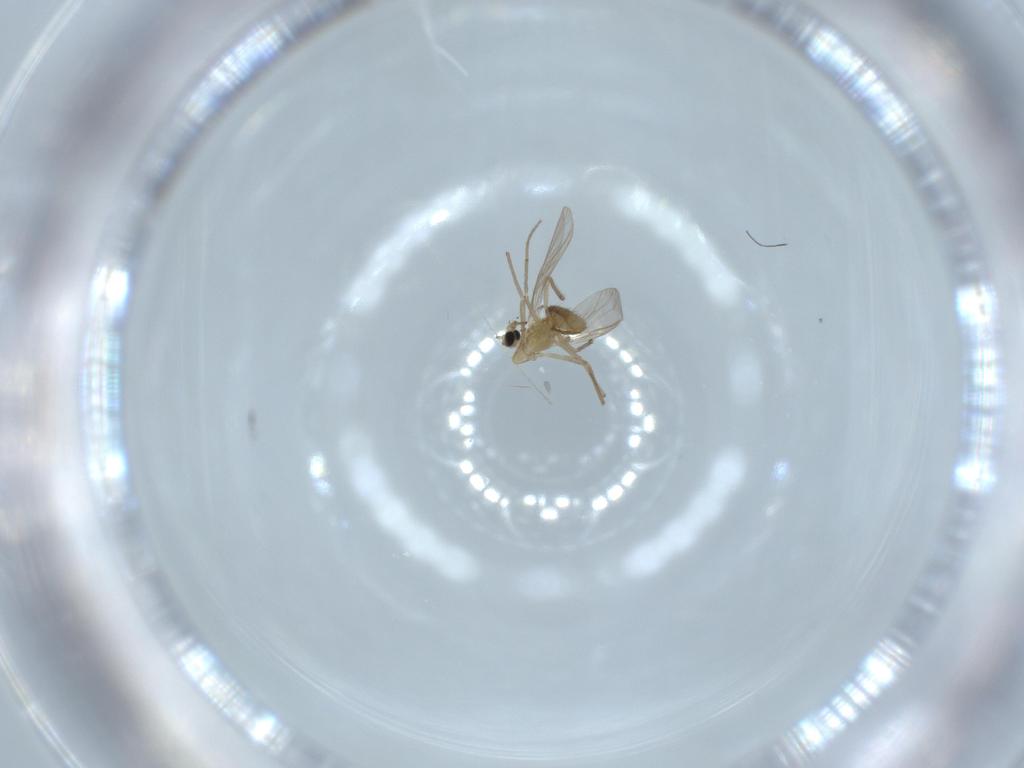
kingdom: Animalia
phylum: Arthropoda
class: Insecta
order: Diptera
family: Chironomidae
